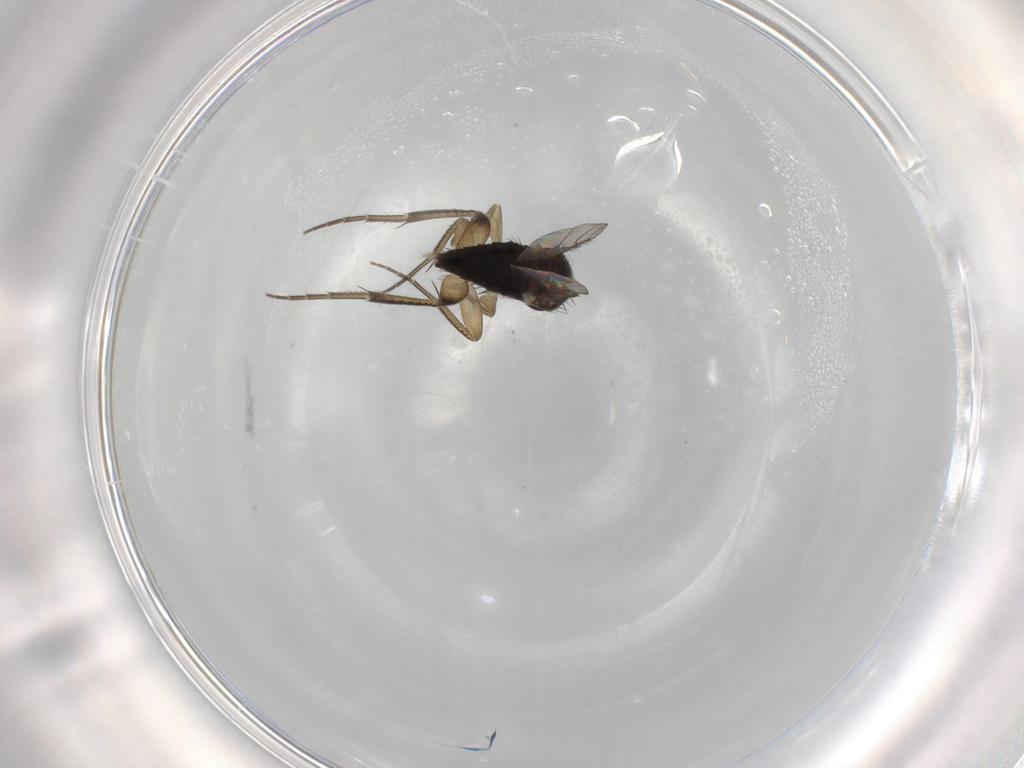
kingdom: Animalia
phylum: Arthropoda
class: Insecta
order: Diptera
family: Phoridae
